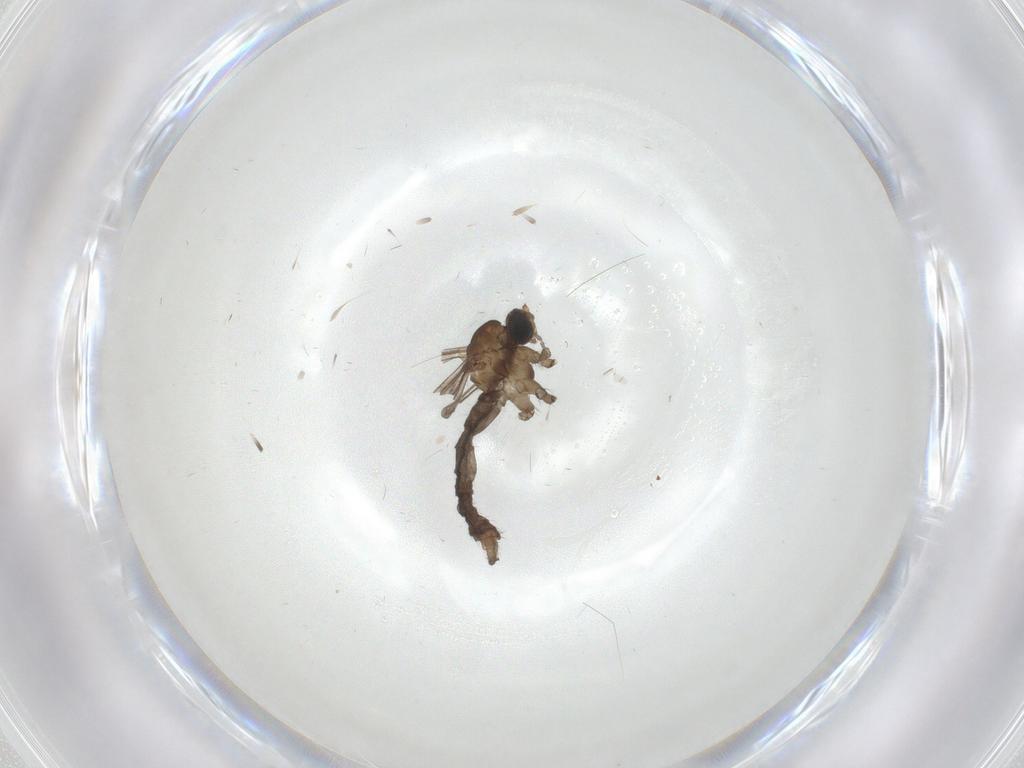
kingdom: Animalia
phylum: Arthropoda
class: Insecta
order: Diptera
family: Limoniidae
